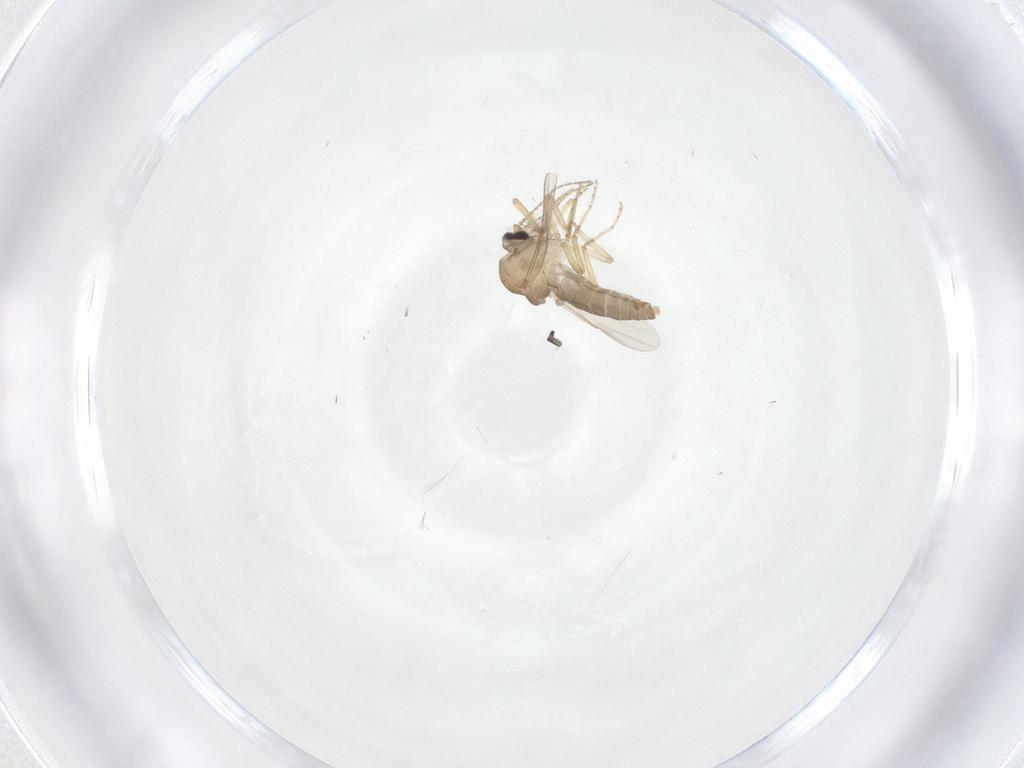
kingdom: Animalia
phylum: Arthropoda
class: Insecta
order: Diptera
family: Ceratopogonidae
